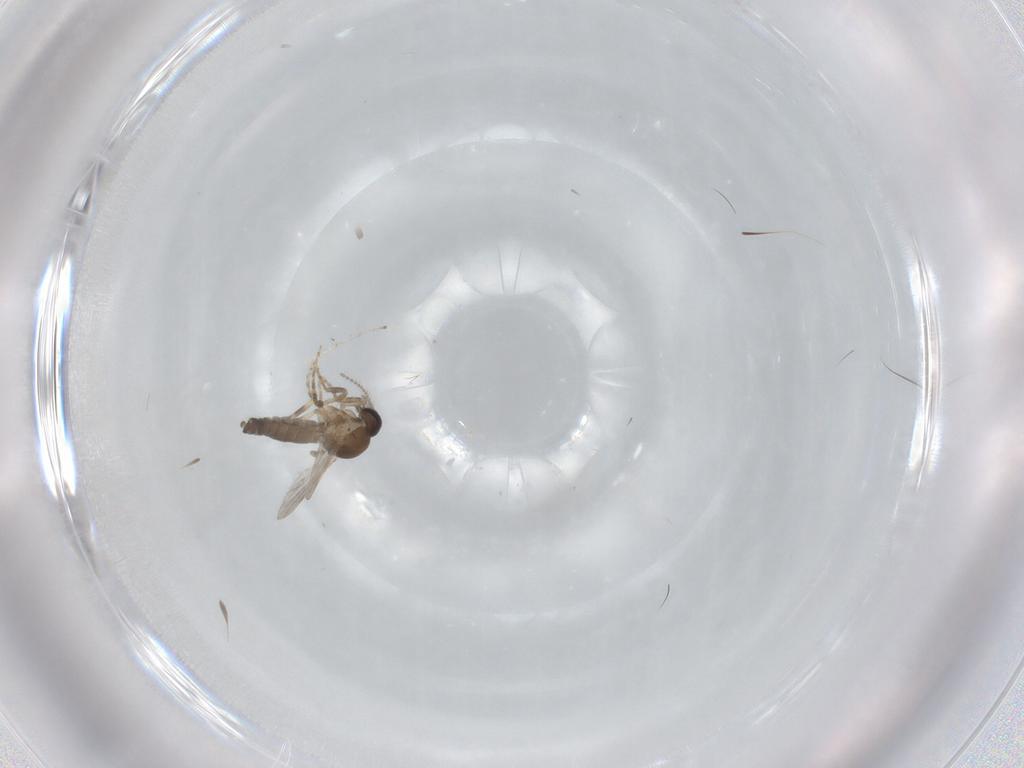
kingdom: Animalia
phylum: Arthropoda
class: Insecta
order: Diptera
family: Ceratopogonidae
